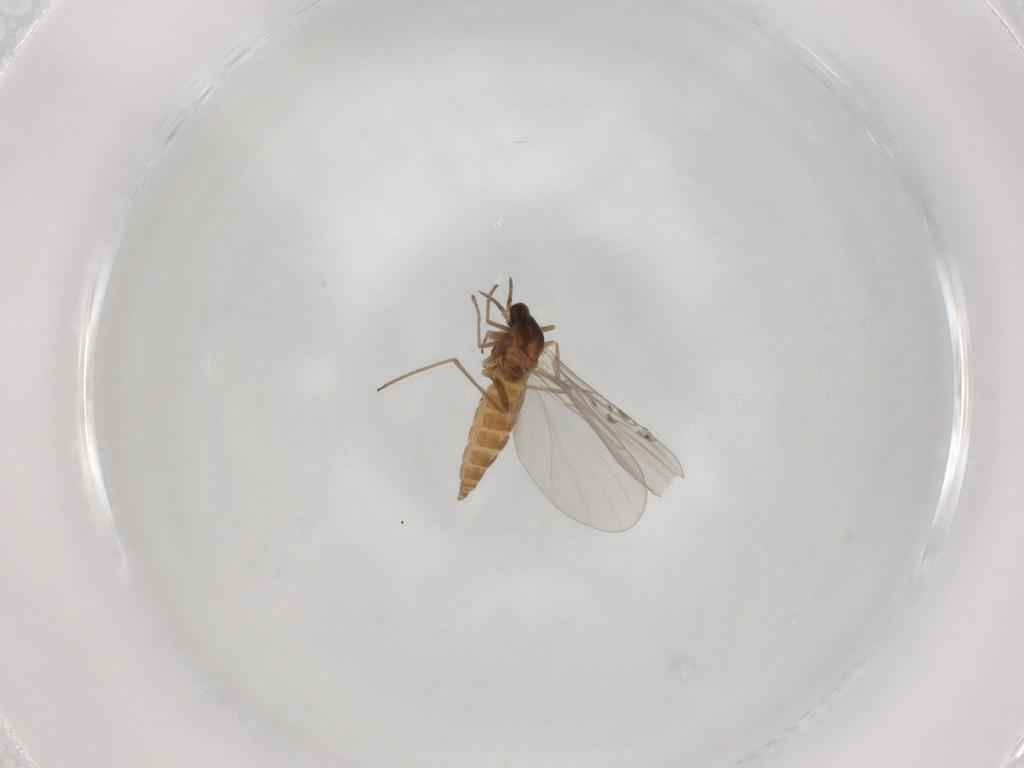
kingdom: Animalia
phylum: Arthropoda
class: Insecta
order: Diptera
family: Cecidomyiidae
